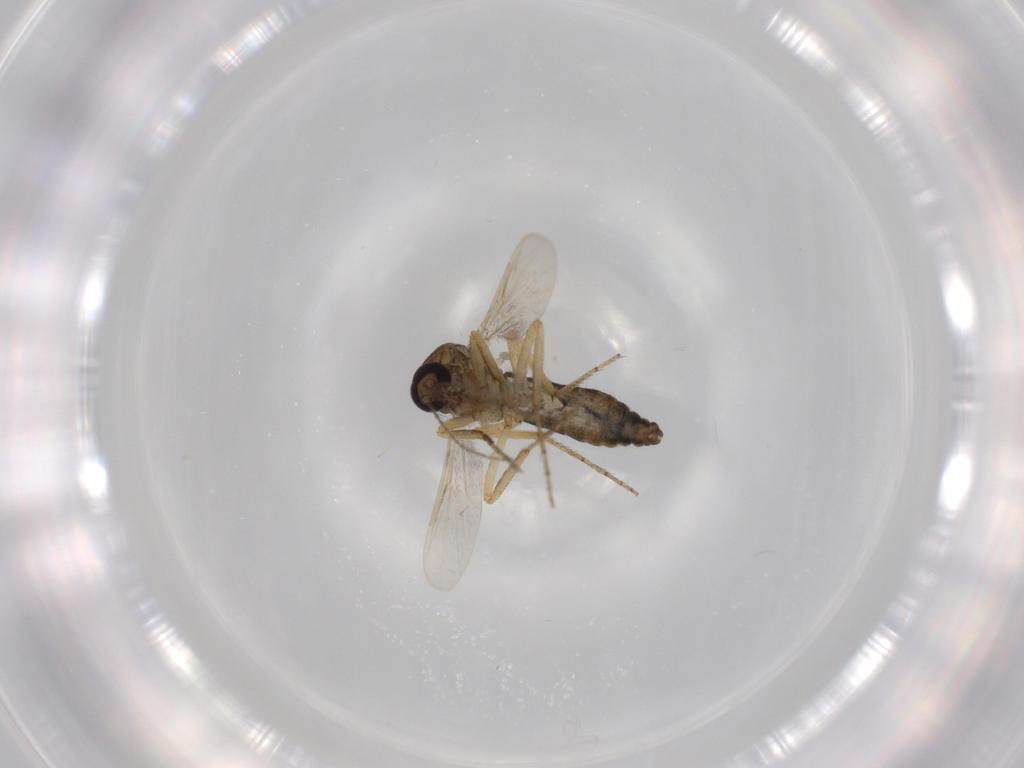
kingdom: Animalia
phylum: Arthropoda
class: Insecta
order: Diptera
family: Ceratopogonidae
